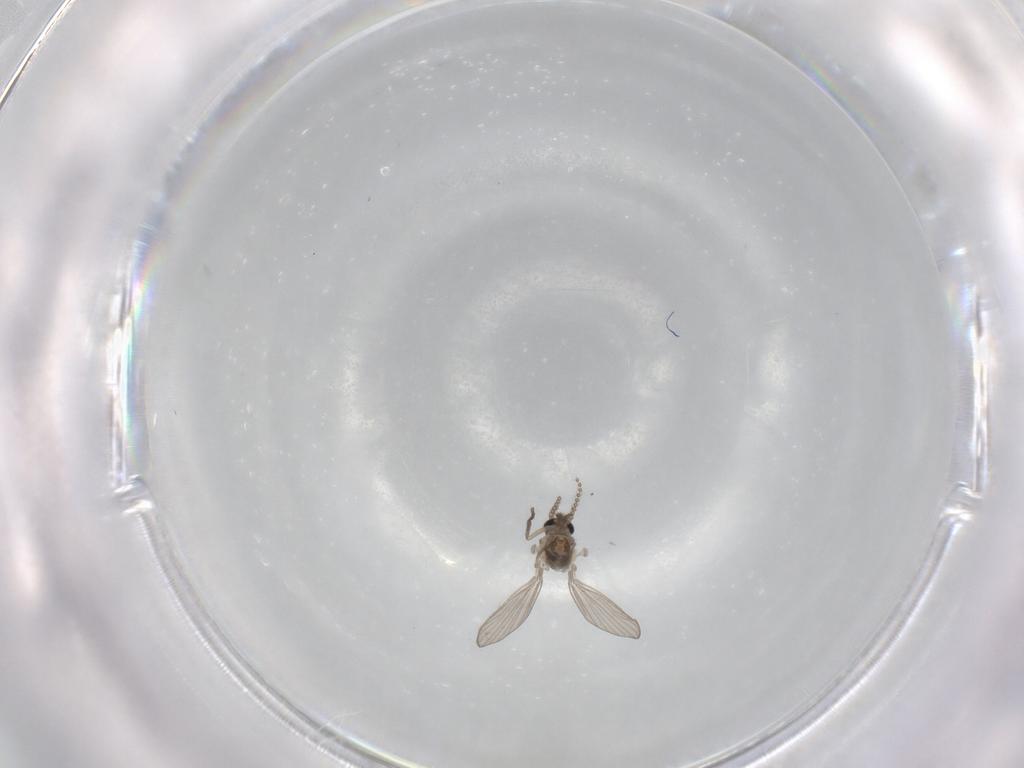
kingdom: Animalia
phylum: Arthropoda
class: Insecta
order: Diptera
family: Psychodidae
